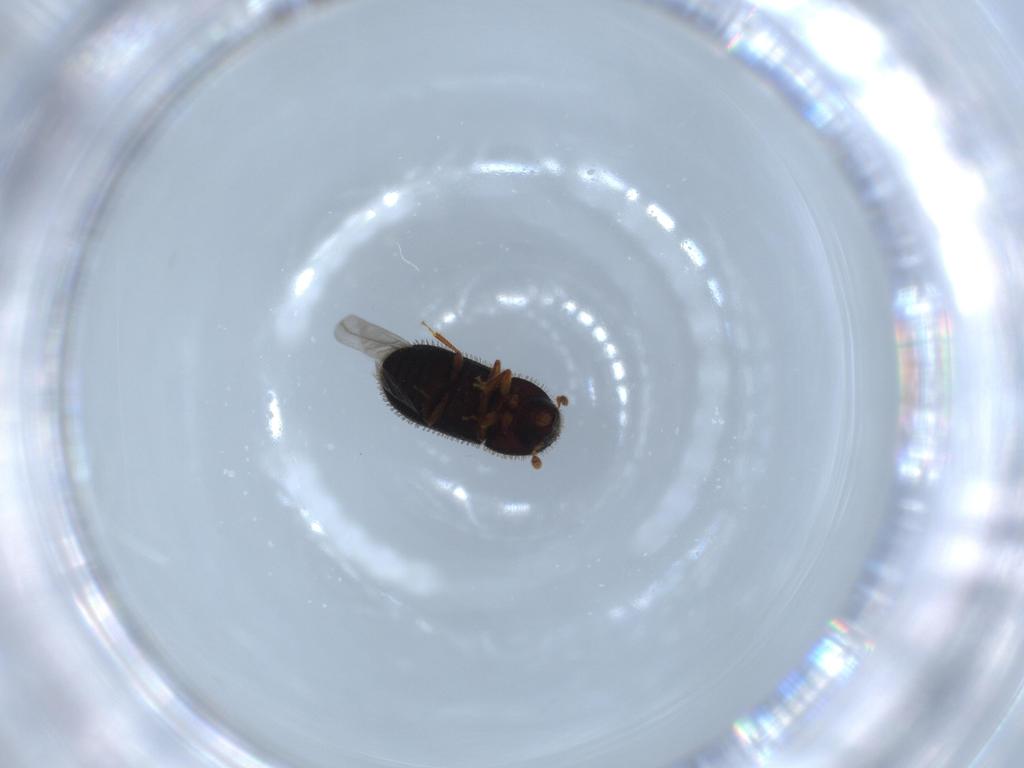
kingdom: Animalia
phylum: Arthropoda
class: Insecta
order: Coleoptera
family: Curculionidae
